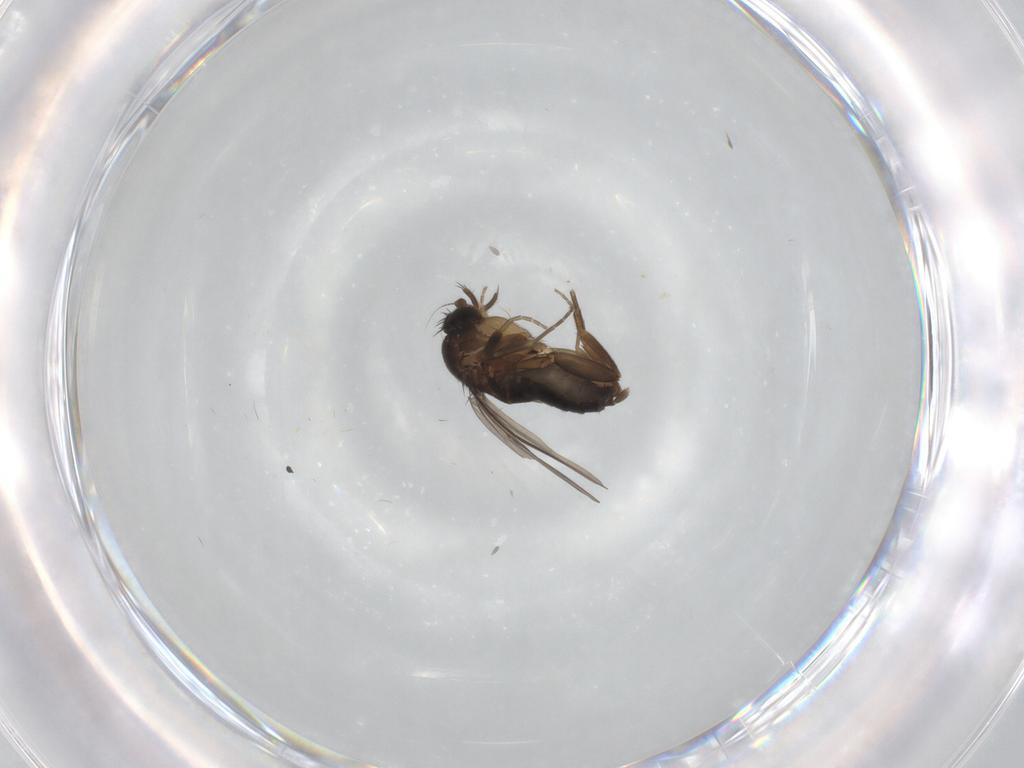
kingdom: Animalia
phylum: Arthropoda
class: Insecta
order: Diptera
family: Phoridae
